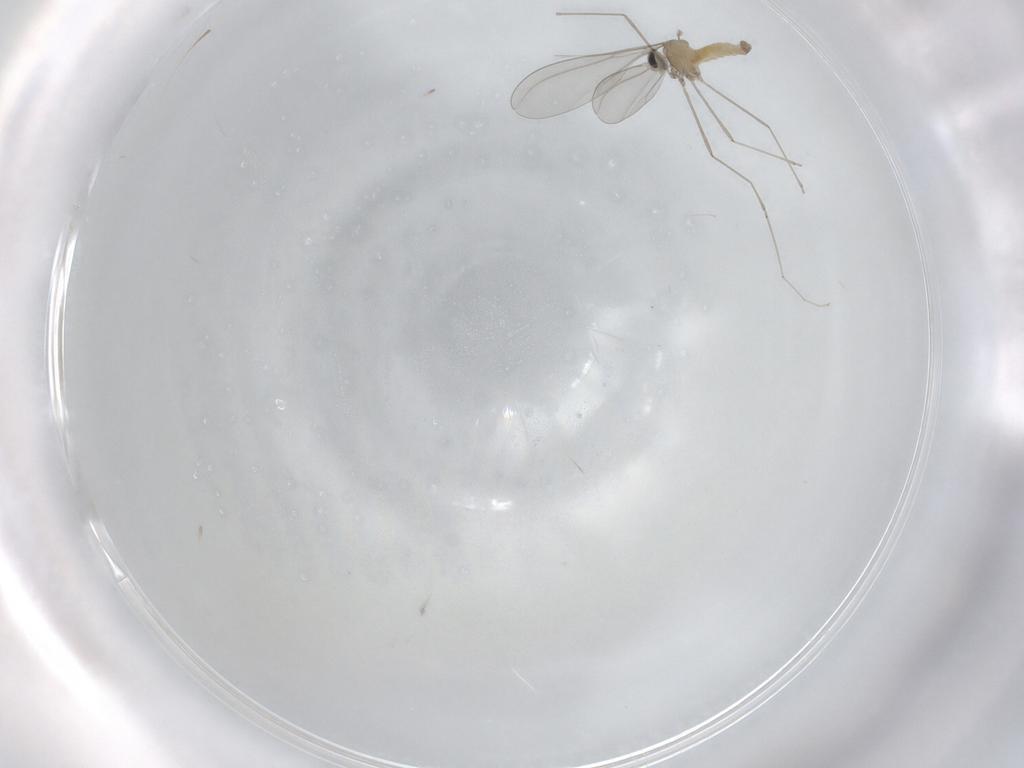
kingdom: Animalia
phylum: Arthropoda
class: Insecta
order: Diptera
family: Cecidomyiidae
